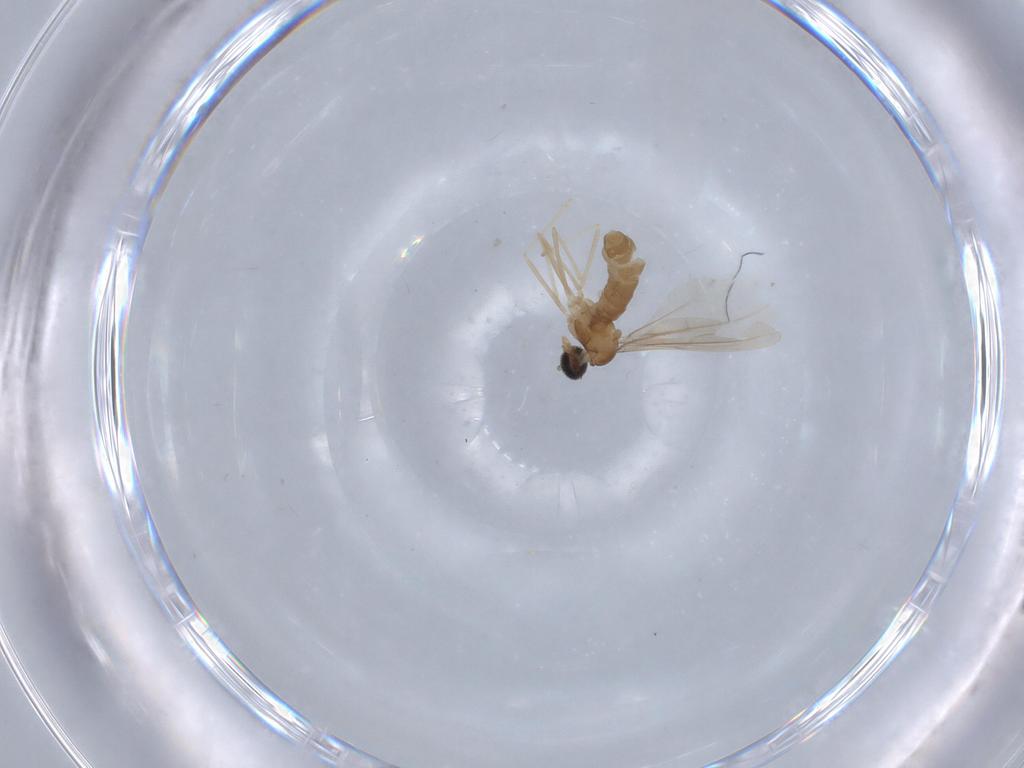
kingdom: Animalia
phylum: Arthropoda
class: Insecta
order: Diptera
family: Cecidomyiidae
